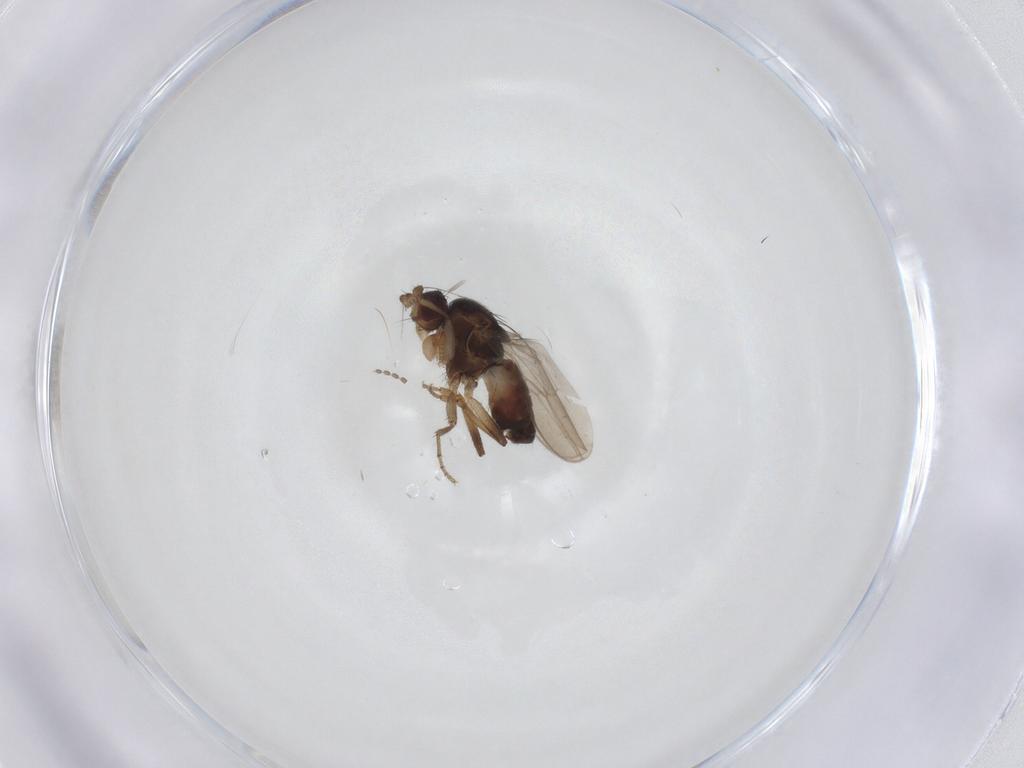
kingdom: Animalia
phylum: Arthropoda
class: Insecta
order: Diptera
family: Sphaeroceridae
